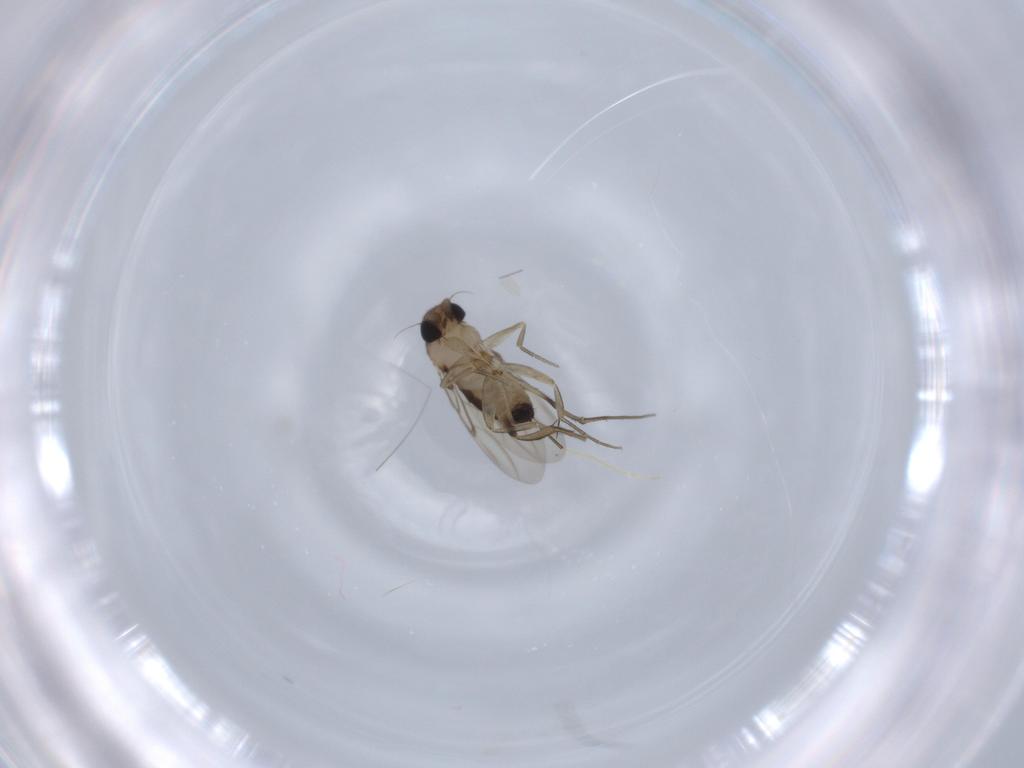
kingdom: Animalia
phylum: Arthropoda
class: Insecta
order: Diptera
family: Phoridae
